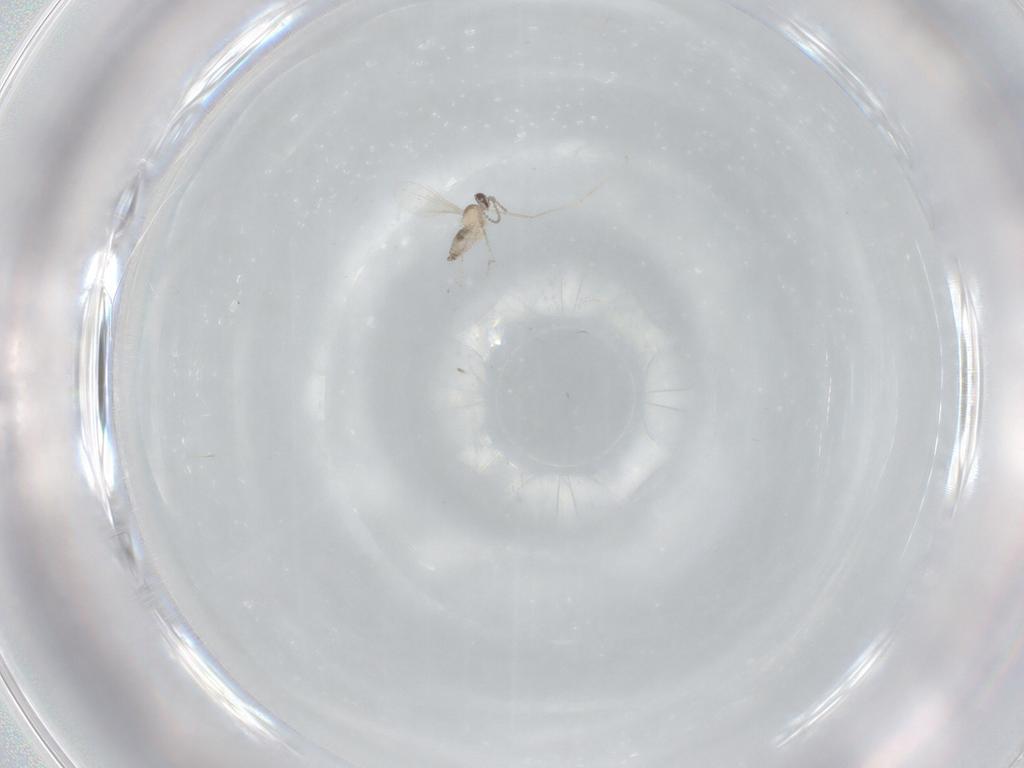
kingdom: Animalia
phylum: Arthropoda
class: Insecta
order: Diptera
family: Cecidomyiidae
